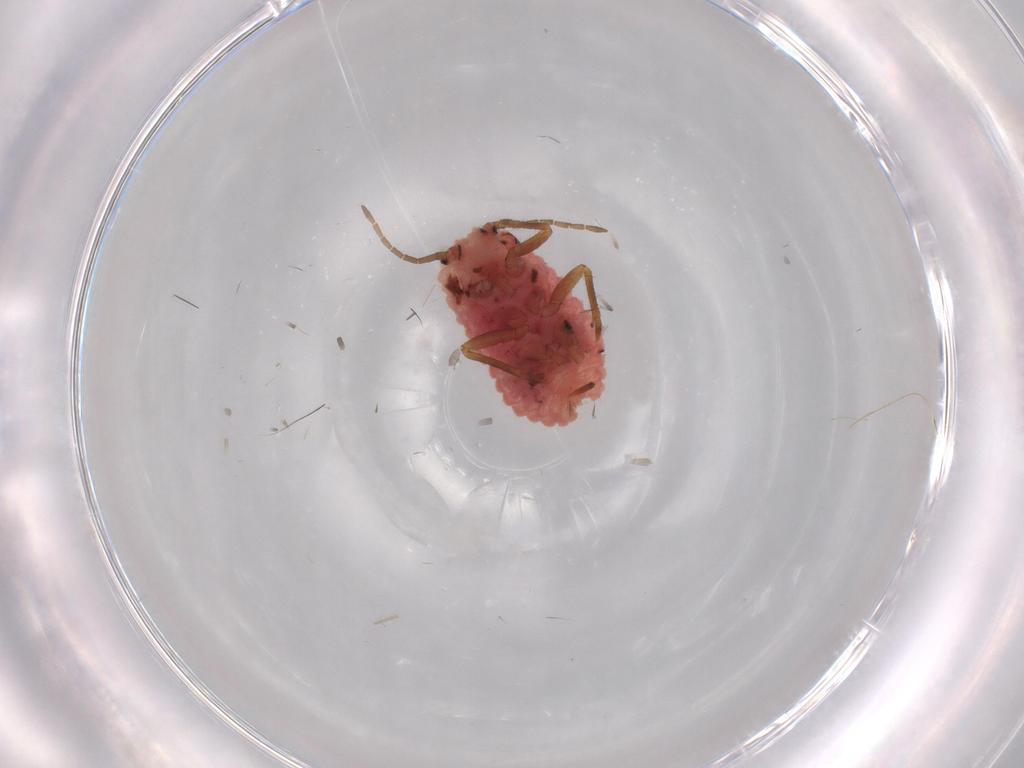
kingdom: Animalia
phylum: Arthropoda
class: Insecta
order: Hemiptera
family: Putoidae
